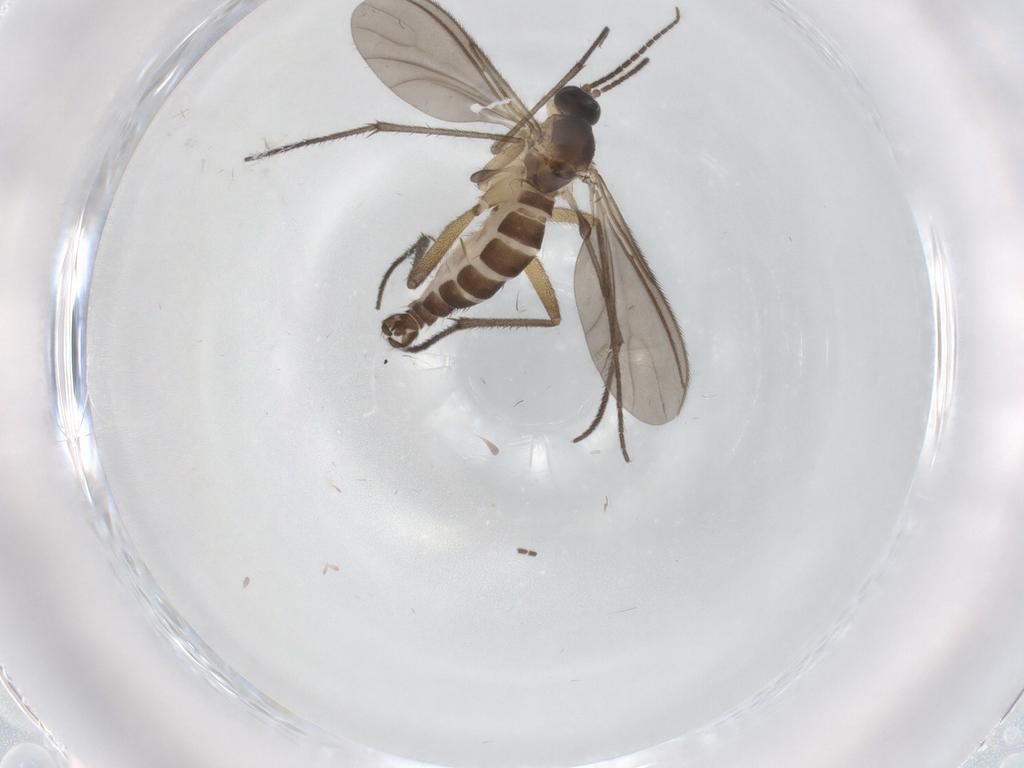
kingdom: Animalia
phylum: Arthropoda
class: Insecta
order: Diptera
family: Sciaridae
